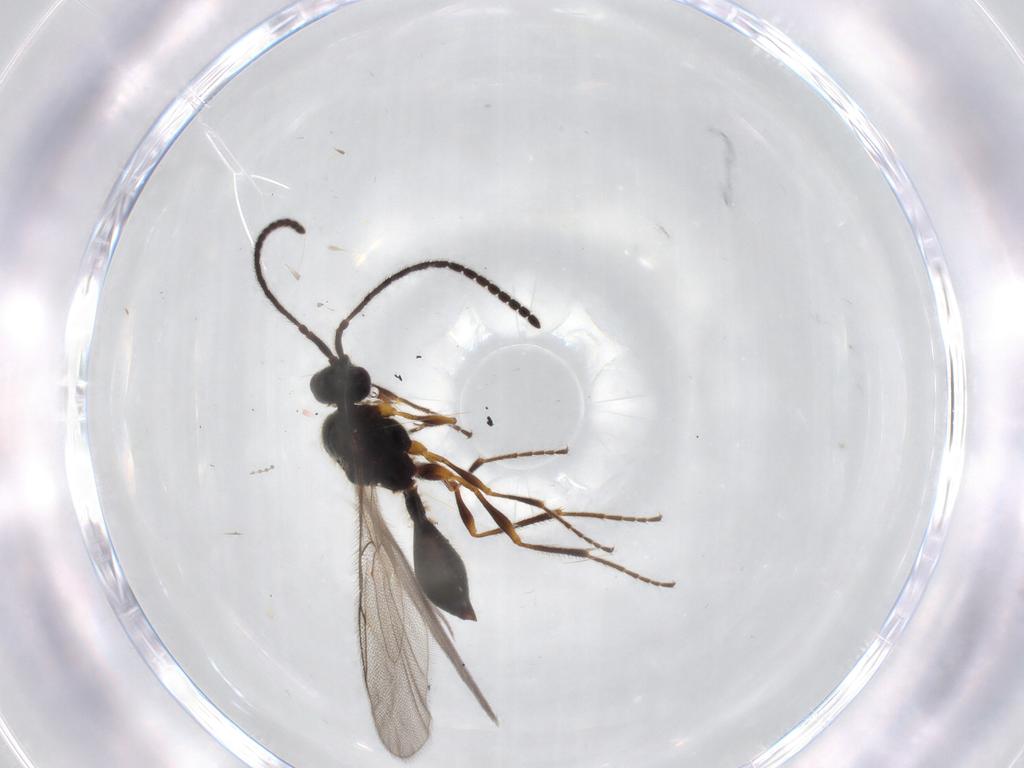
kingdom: Animalia
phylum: Arthropoda
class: Insecta
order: Hymenoptera
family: Diapriidae
